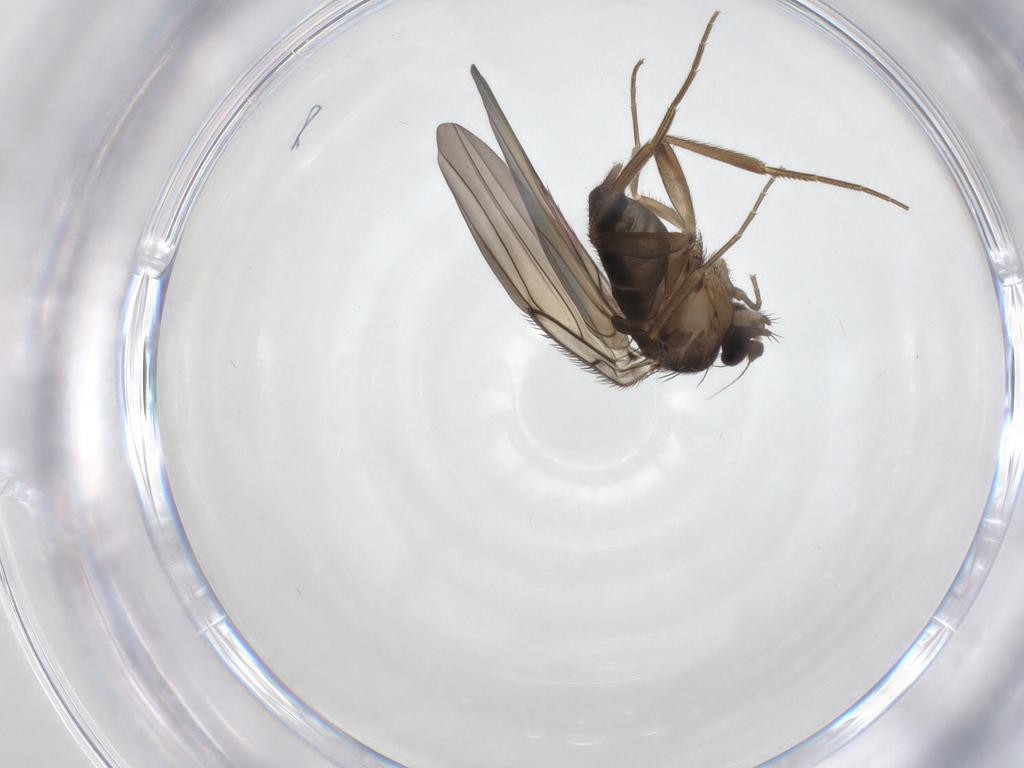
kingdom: Animalia
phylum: Arthropoda
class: Insecta
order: Diptera
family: Phoridae
